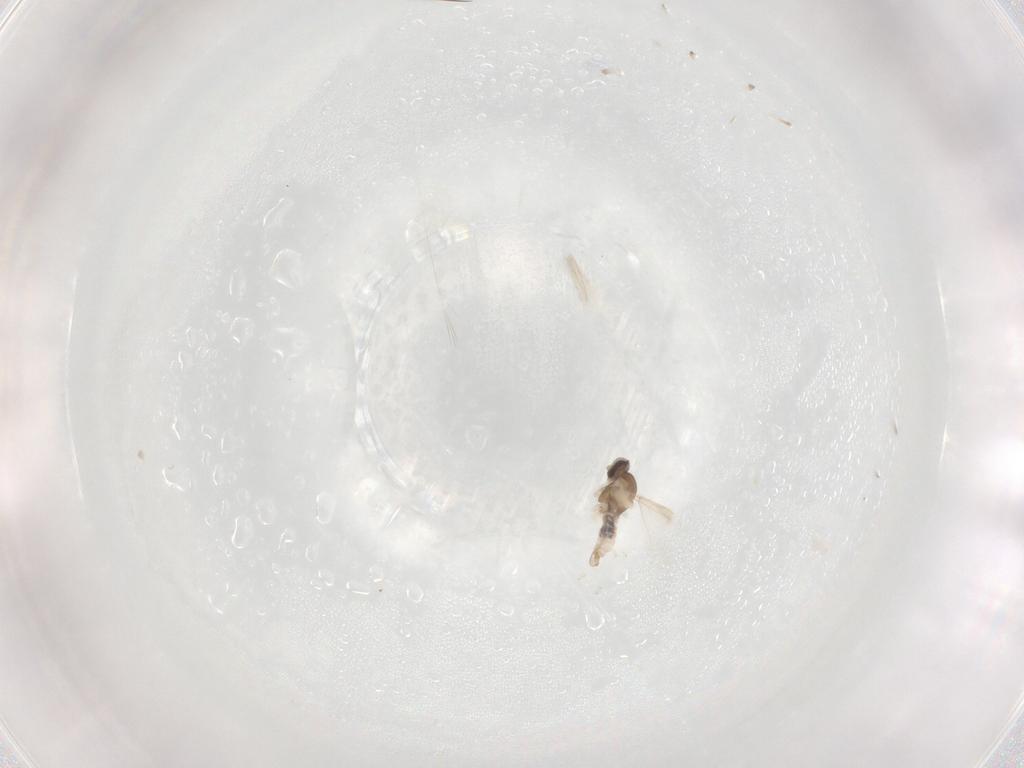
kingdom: Animalia
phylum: Arthropoda
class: Insecta
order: Diptera
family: Cecidomyiidae
